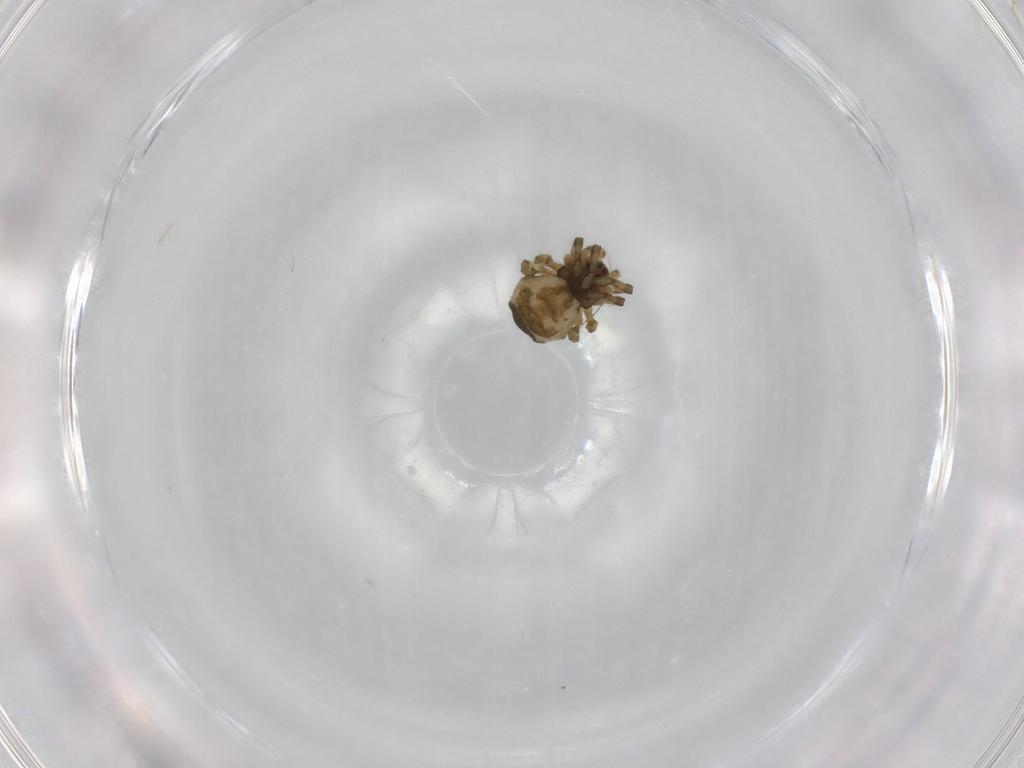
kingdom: Animalia
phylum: Arthropoda
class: Arachnida
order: Araneae
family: Tetragnathidae
